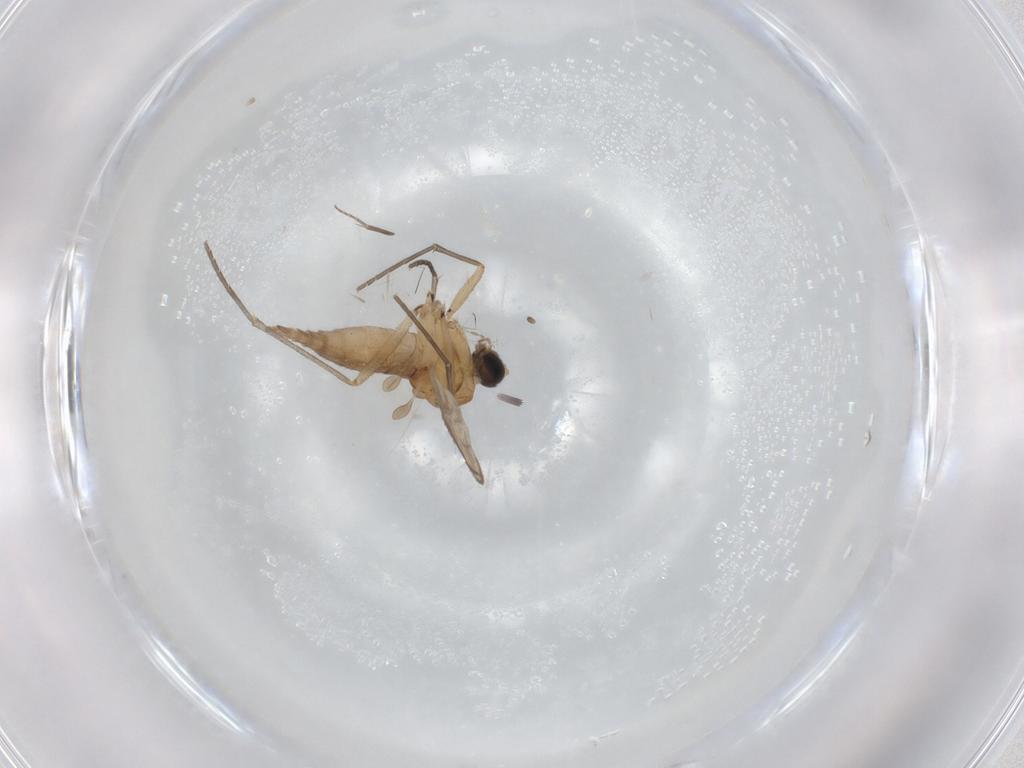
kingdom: Animalia
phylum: Arthropoda
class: Insecta
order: Diptera
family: Sciaridae
